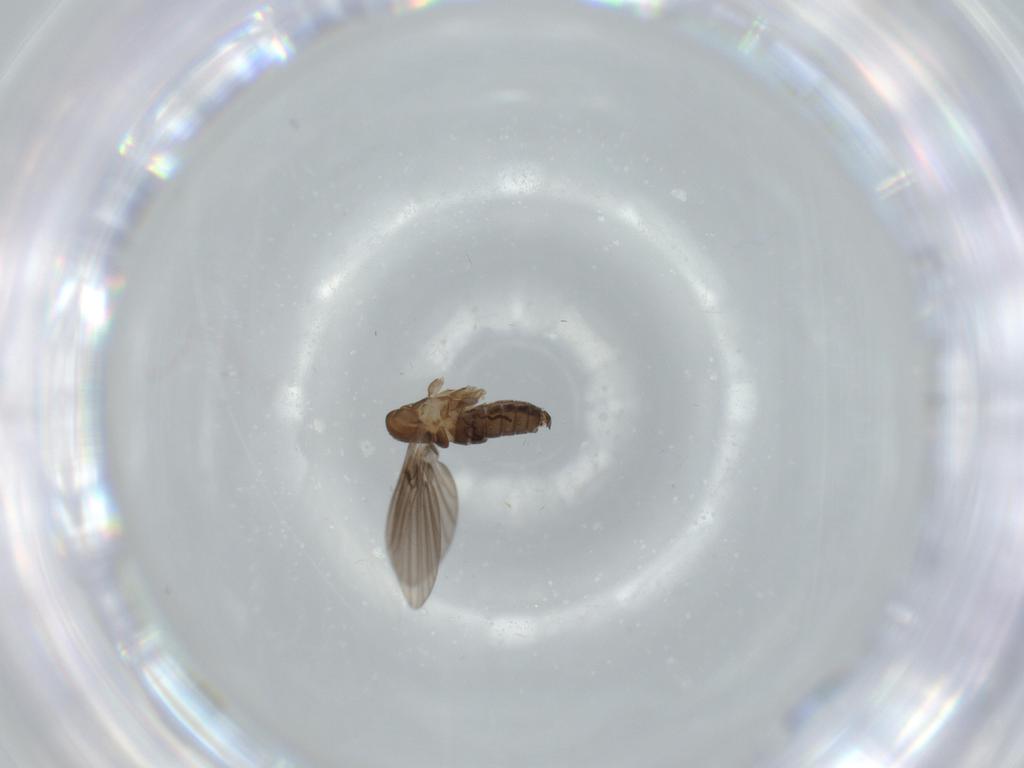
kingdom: Animalia
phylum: Arthropoda
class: Insecta
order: Diptera
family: Psychodidae
